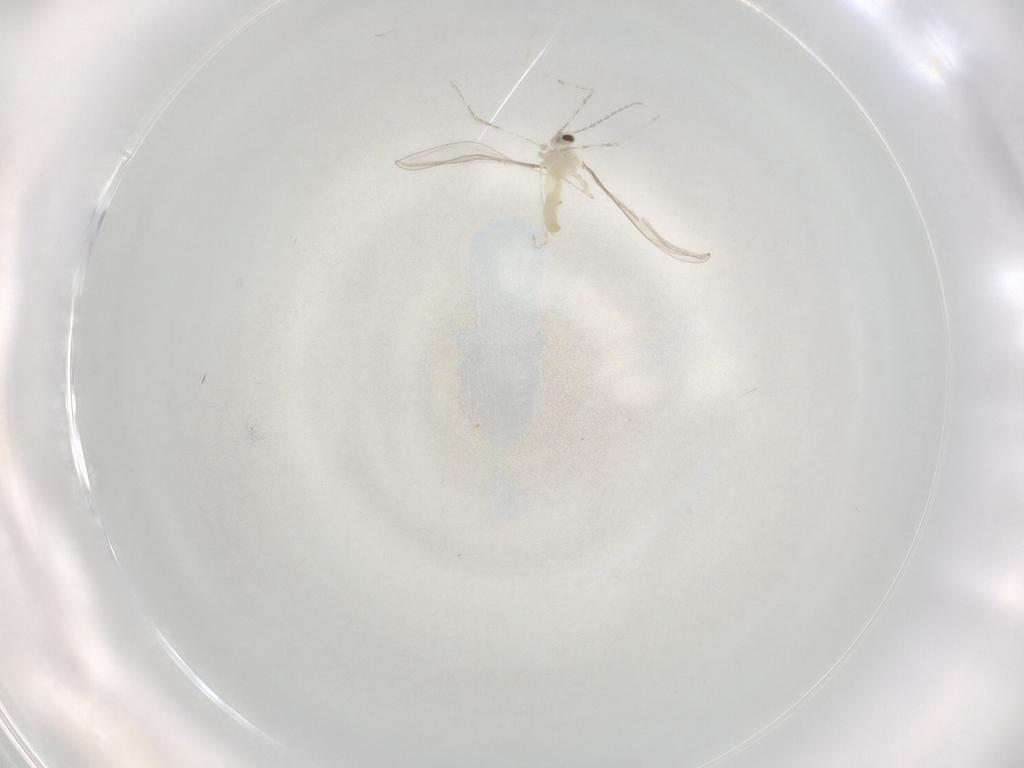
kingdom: Animalia
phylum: Arthropoda
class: Insecta
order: Diptera
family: Cecidomyiidae
